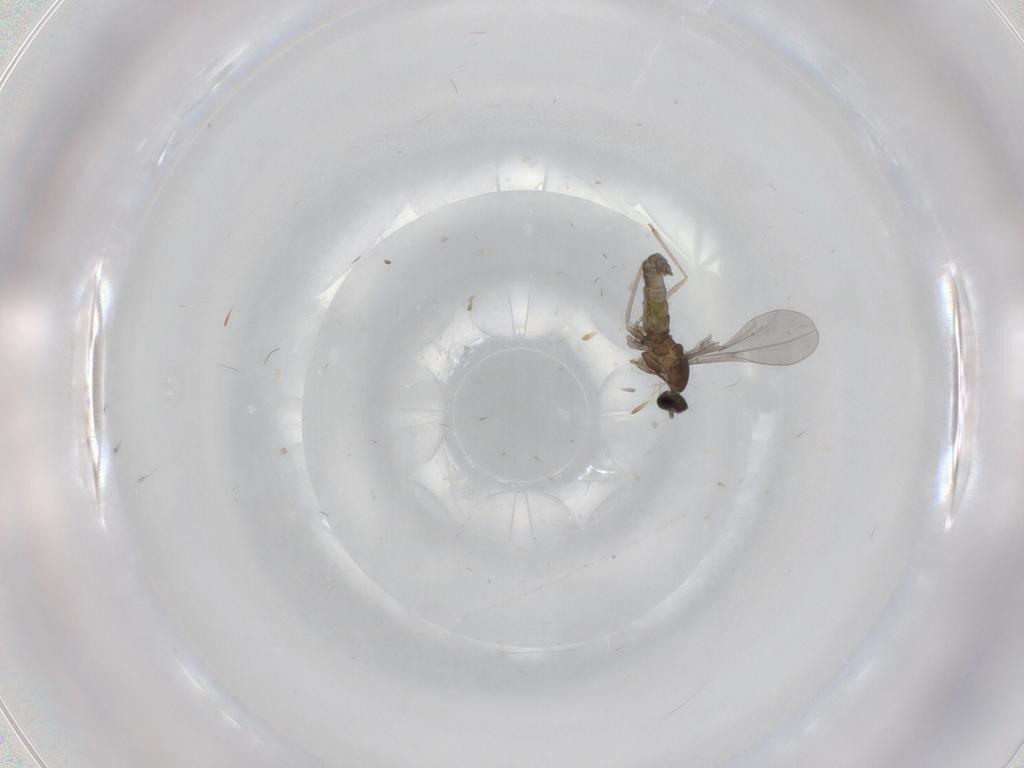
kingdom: Animalia
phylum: Arthropoda
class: Insecta
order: Diptera
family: Cecidomyiidae
